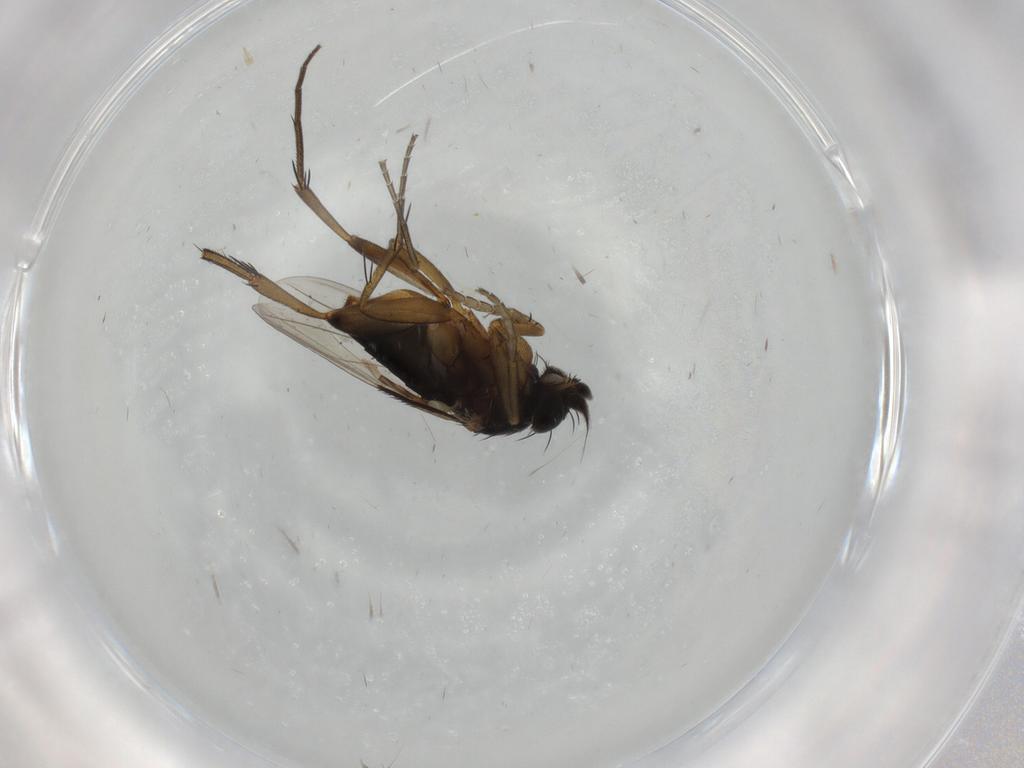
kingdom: Animalia
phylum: Arthropoda
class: Insecta
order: Diptera
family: Phoridae
